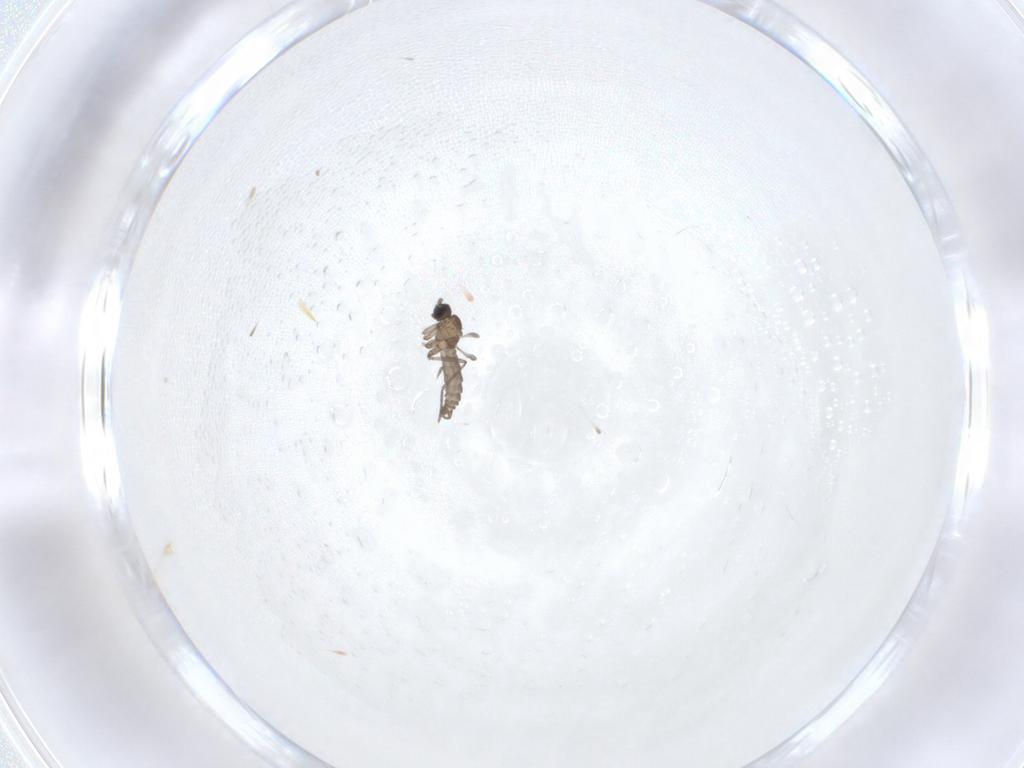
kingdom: Animalia
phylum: Arthropoda
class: Insecta
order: Diptera
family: Sciaridae
